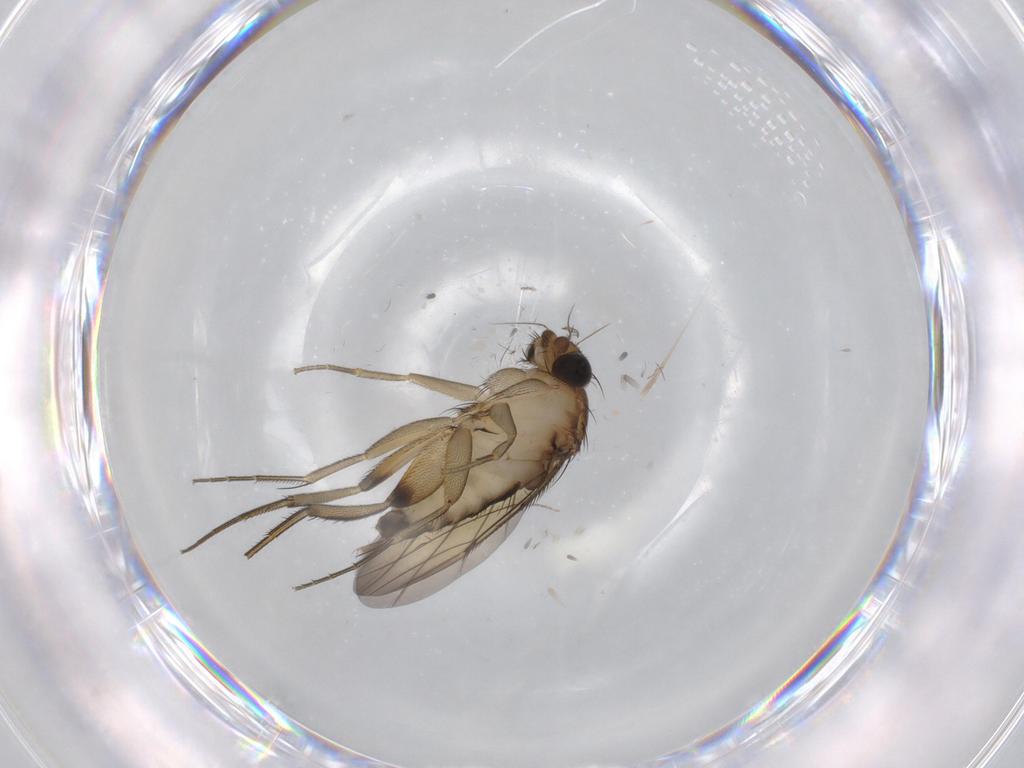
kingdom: Animalia
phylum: Arthropoda
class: Insecta
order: Diptera
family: Phoridae
